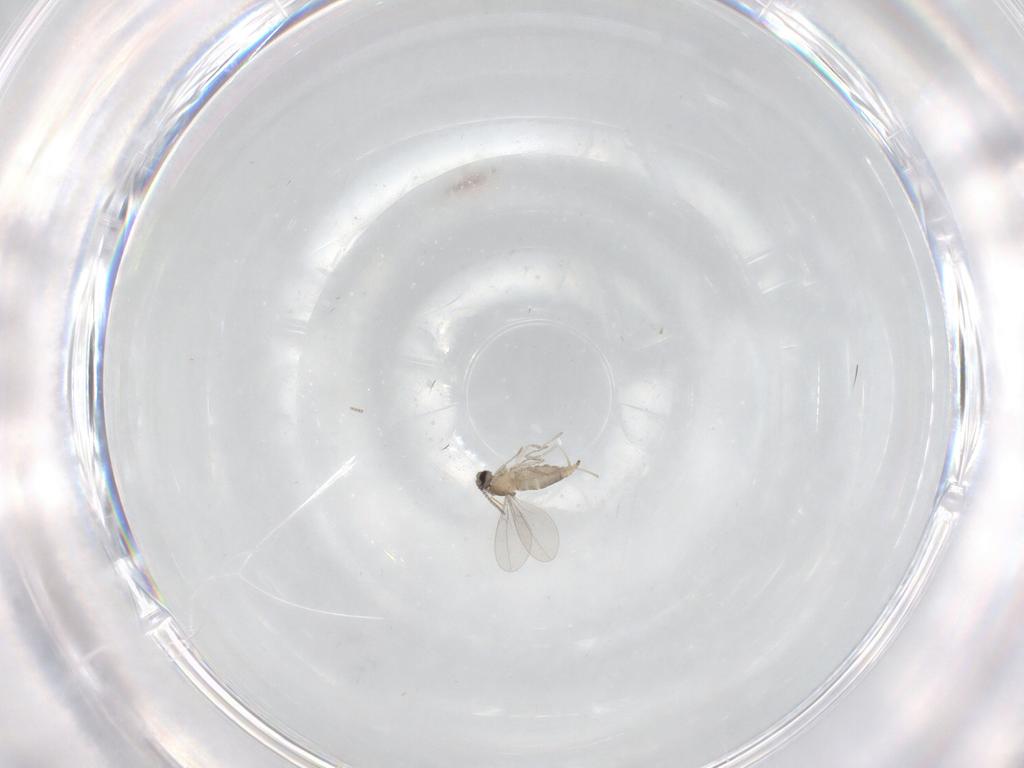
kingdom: Animalia
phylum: Arthropoda
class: Insecta
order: Diptera
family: Cecidomyiidae
